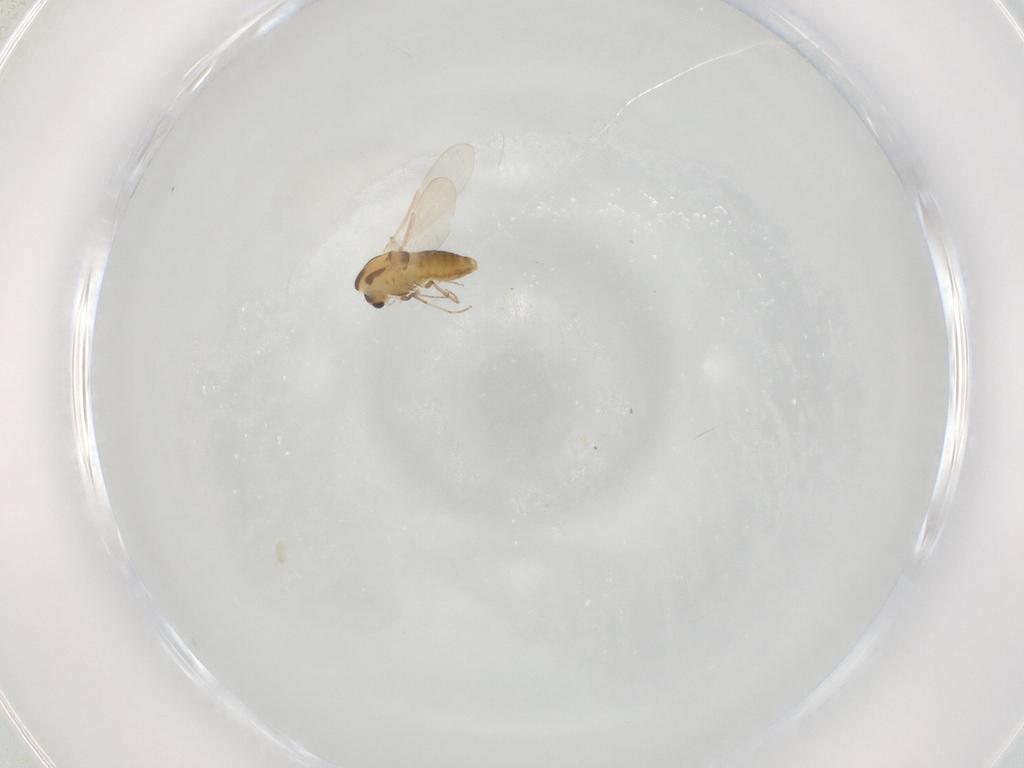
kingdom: Animalia
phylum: Arthropoda
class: Insecta
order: Diptera
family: Chironomidae
